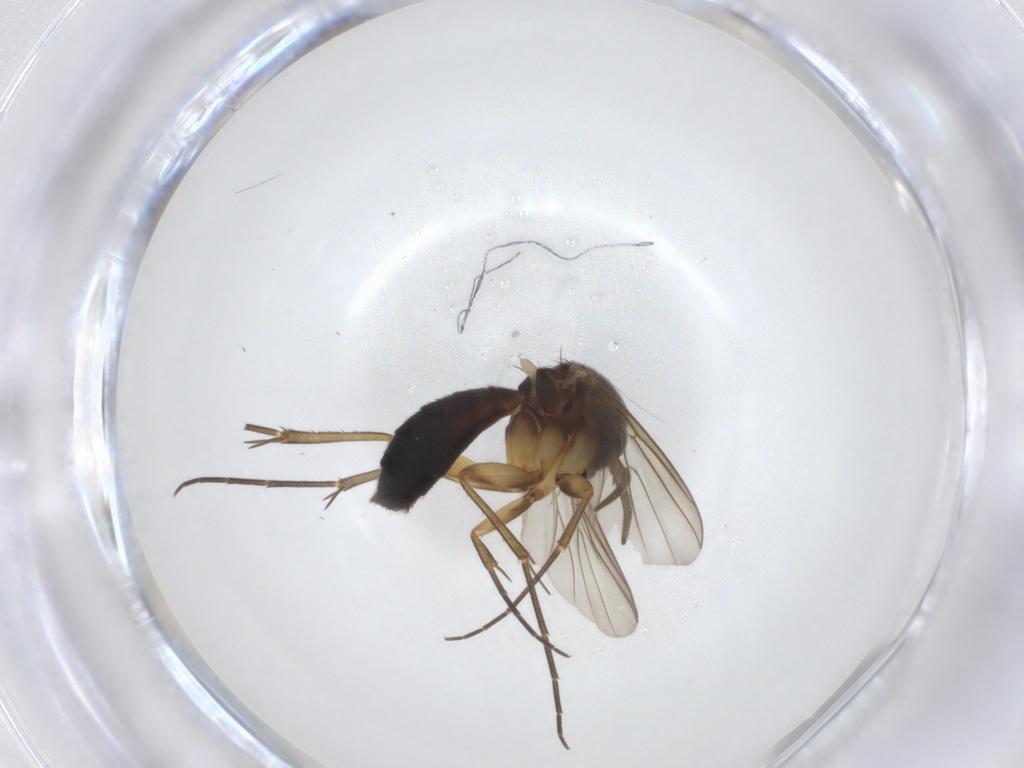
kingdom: Animalia
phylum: Arthropoda
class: Insecta
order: Diptera
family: Mycetophilidae
